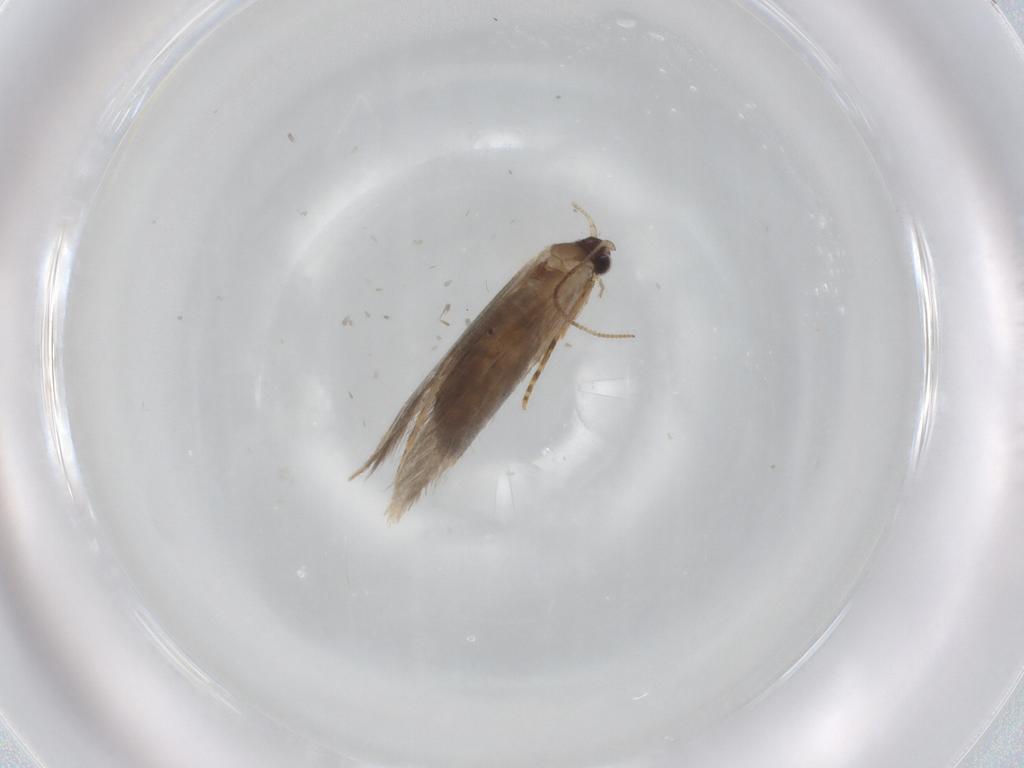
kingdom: Animalia
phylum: Arthropoda
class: Insecta
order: Lepidoptera
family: Tineidae
